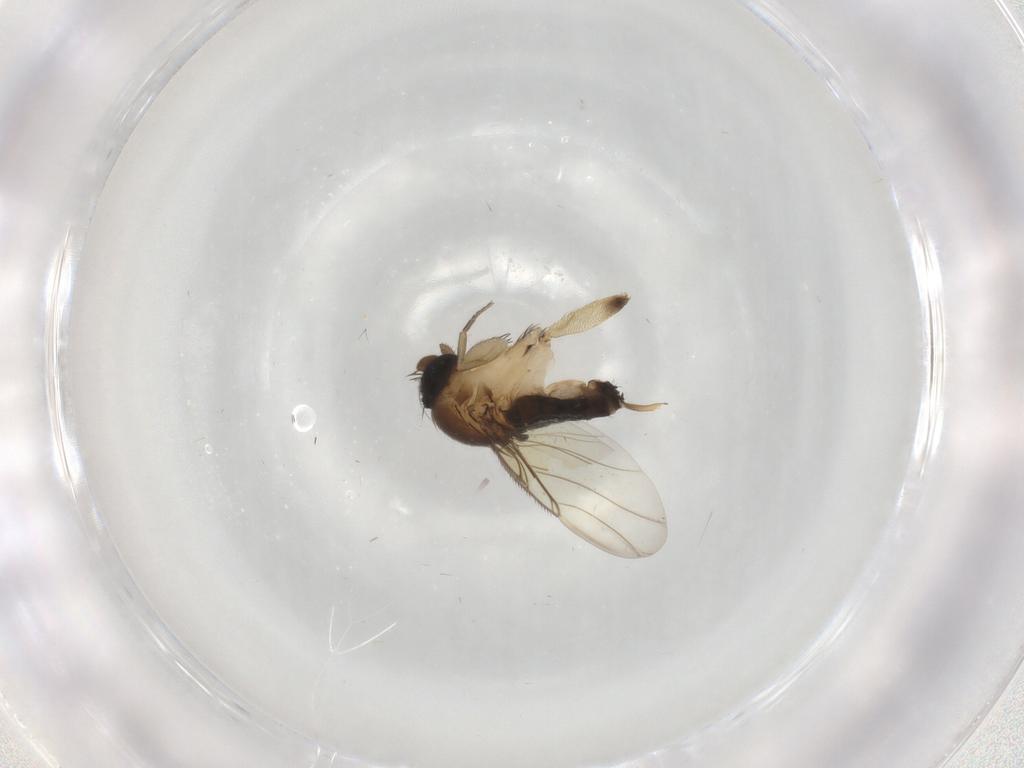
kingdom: Animalia
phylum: Arthropoda
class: Insecta
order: Diptera
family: Phoridae
